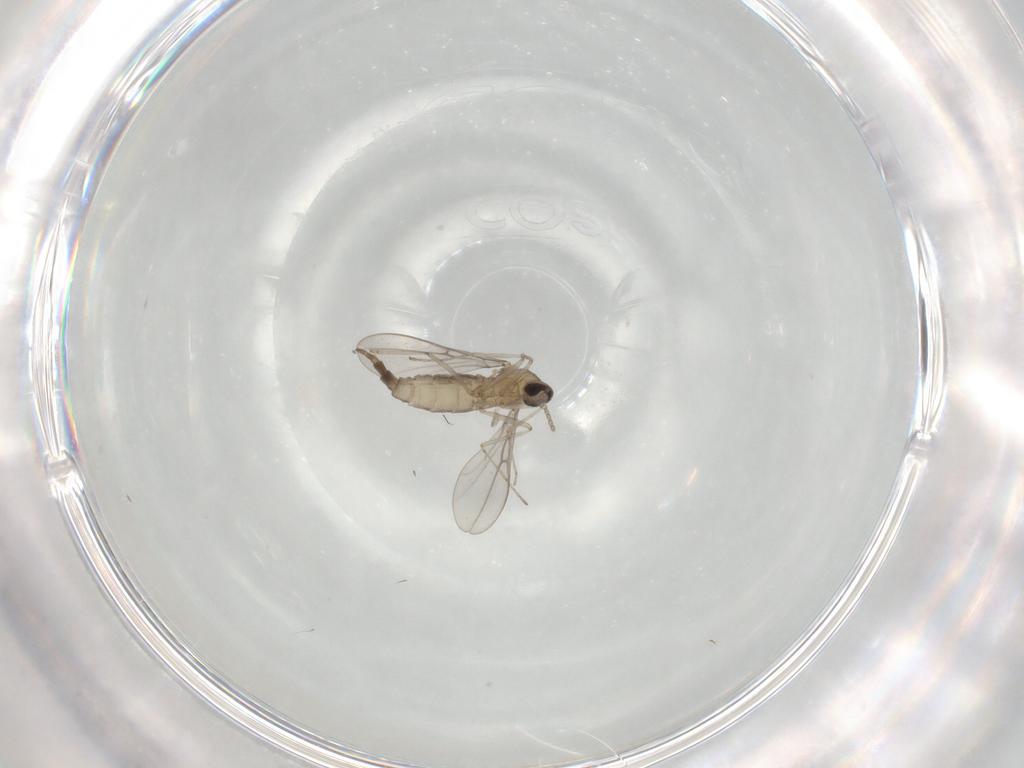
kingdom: Animalia
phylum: Arthropoda
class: Insecta
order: Diptera
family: Cecidomyiidae
